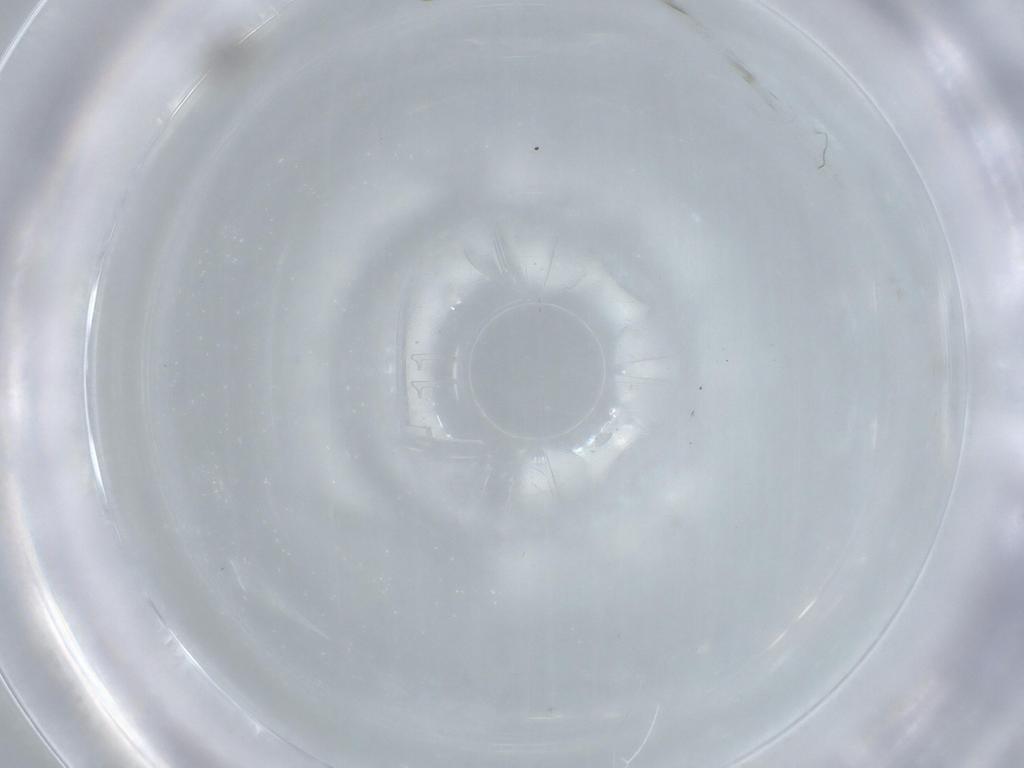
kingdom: Animalia
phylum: Arthropoda
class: Insecta
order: Diptera
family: Cecidomyiidae
